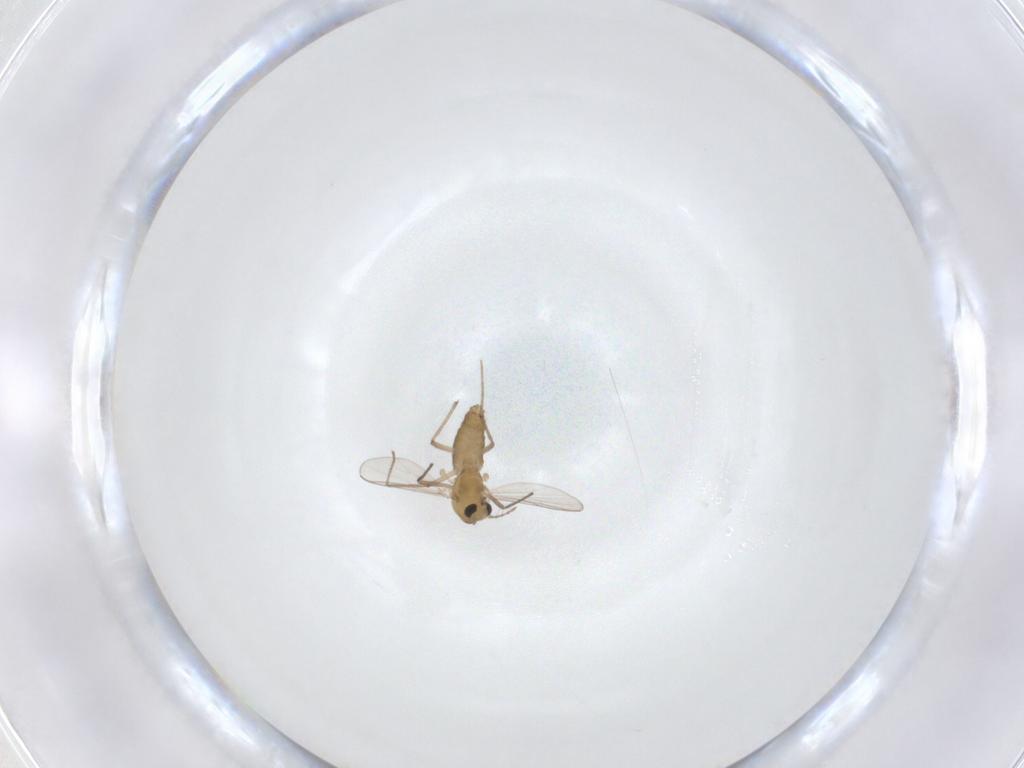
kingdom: Animalia
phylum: Arthropoda
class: Insecta
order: Diptera
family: Chironomidae
